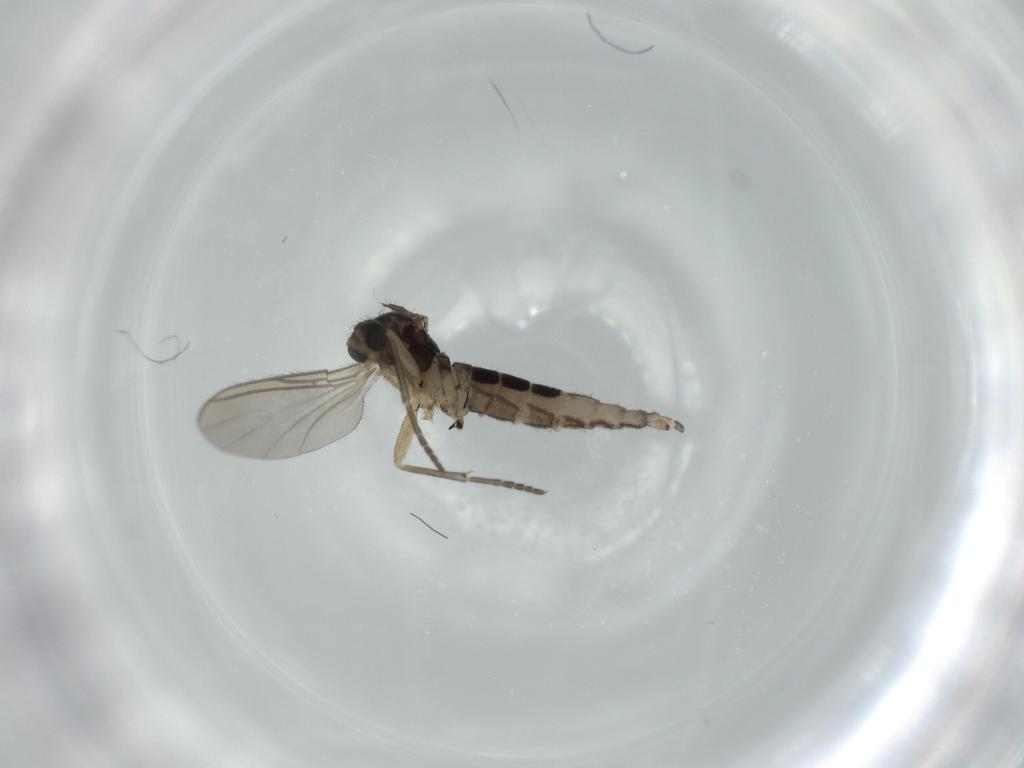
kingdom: Animalia
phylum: Arthropoda
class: Insecta
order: Diptera
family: Sciaridae
